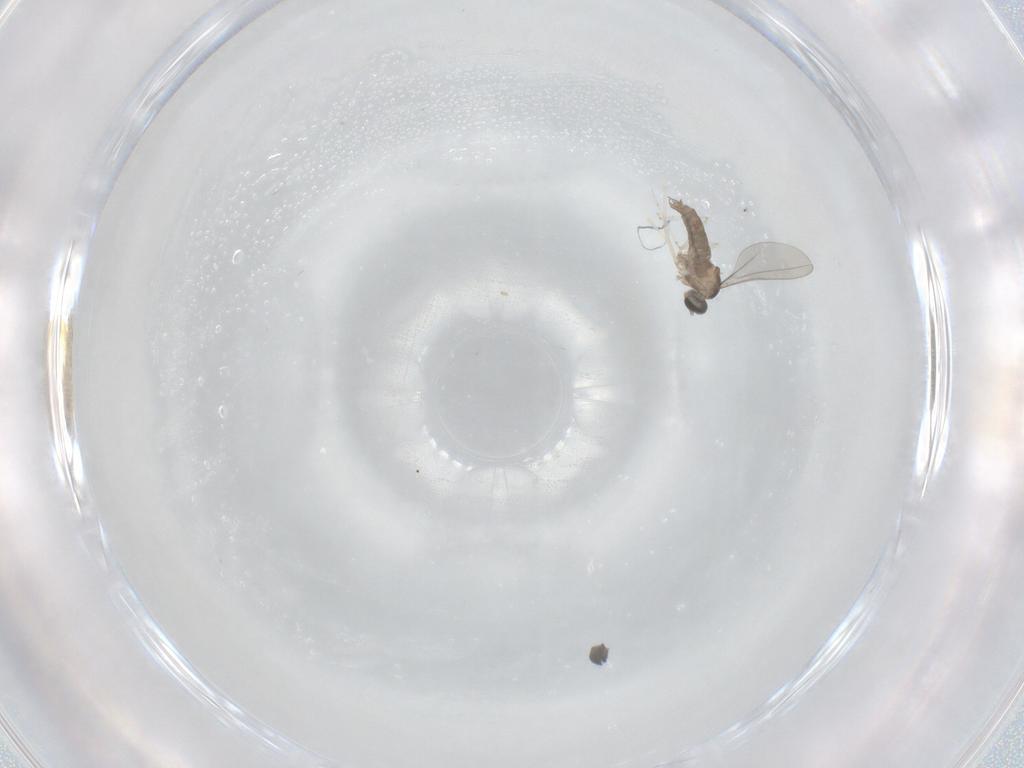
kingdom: Animalia
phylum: Arthropoda
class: Insecta
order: Diptera
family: Cecidomyiidae
